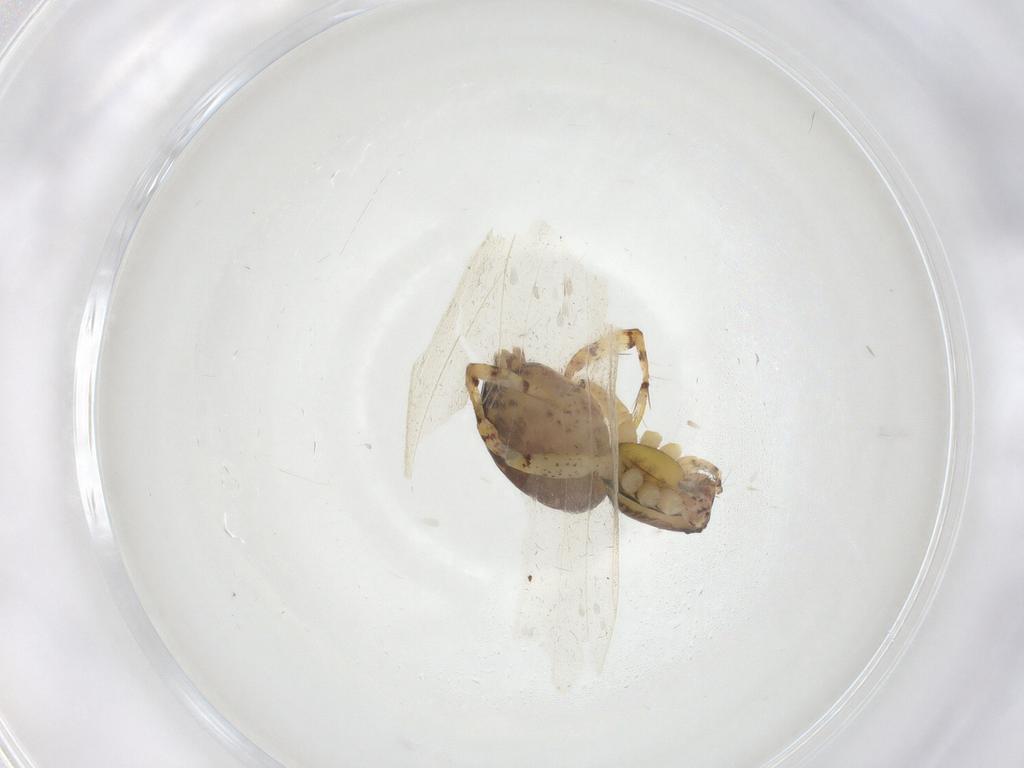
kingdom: Animalia
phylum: Arthropoda
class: Arachnida
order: Araneae
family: Anyphaenidae
